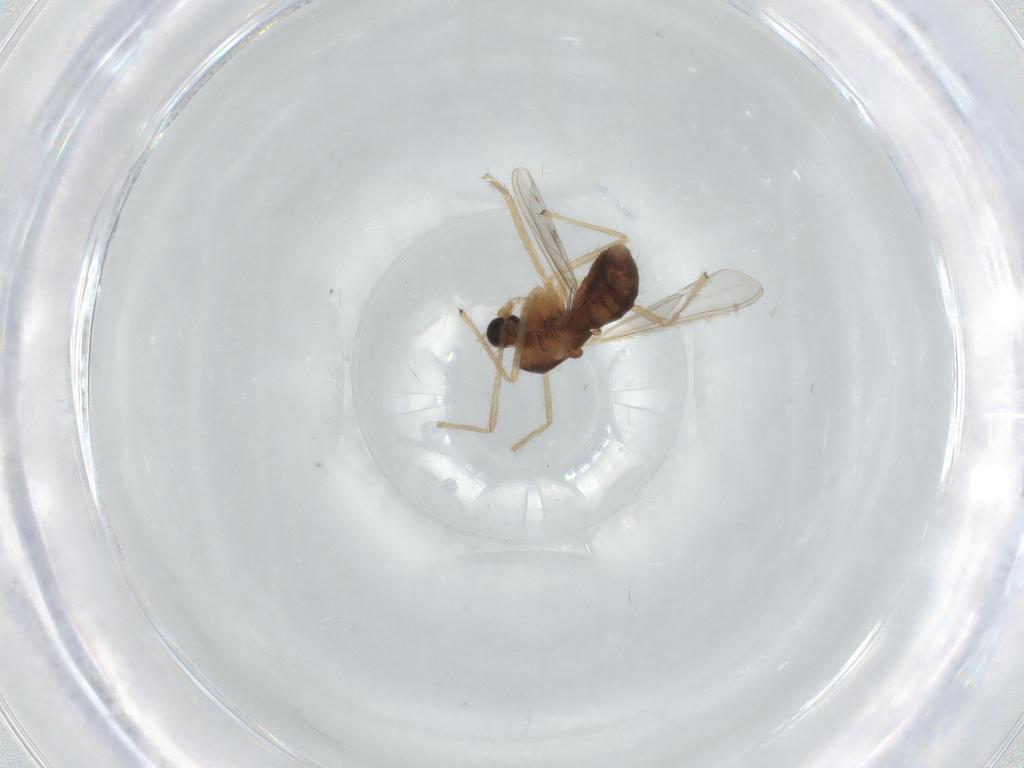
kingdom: Animalia
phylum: Arthropoda
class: Insecta
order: Diptera
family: Chironomidae
